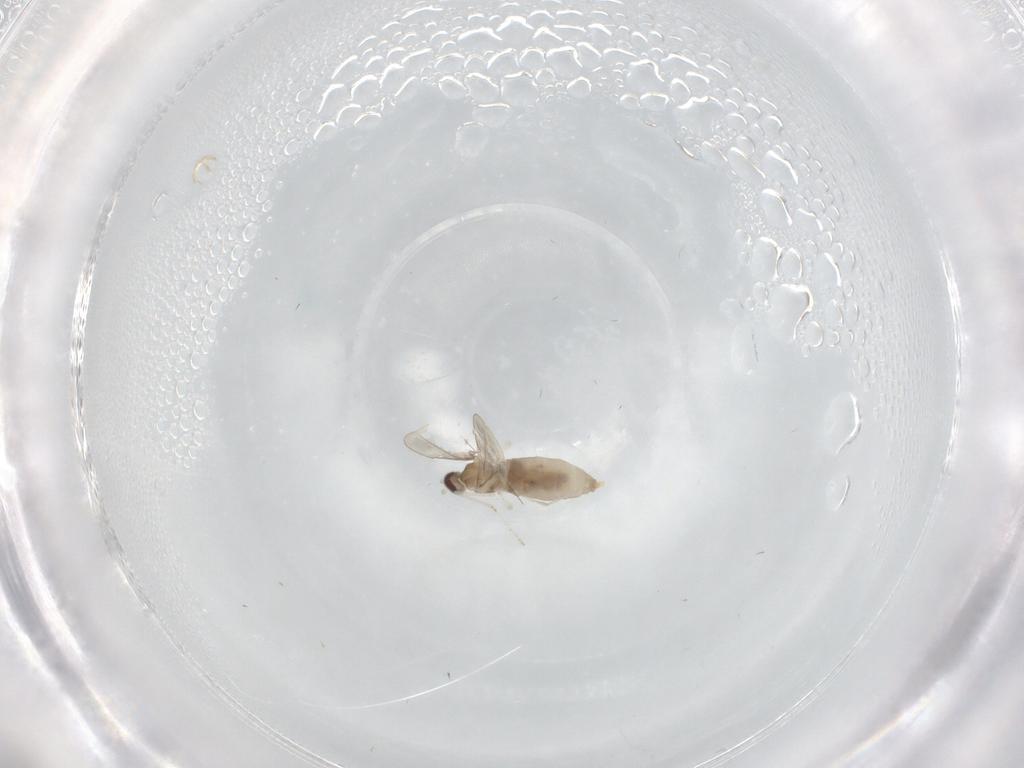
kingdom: Animalia
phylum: Arthropoda
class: Insecta
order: Diptera
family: Cecidomyiidae
